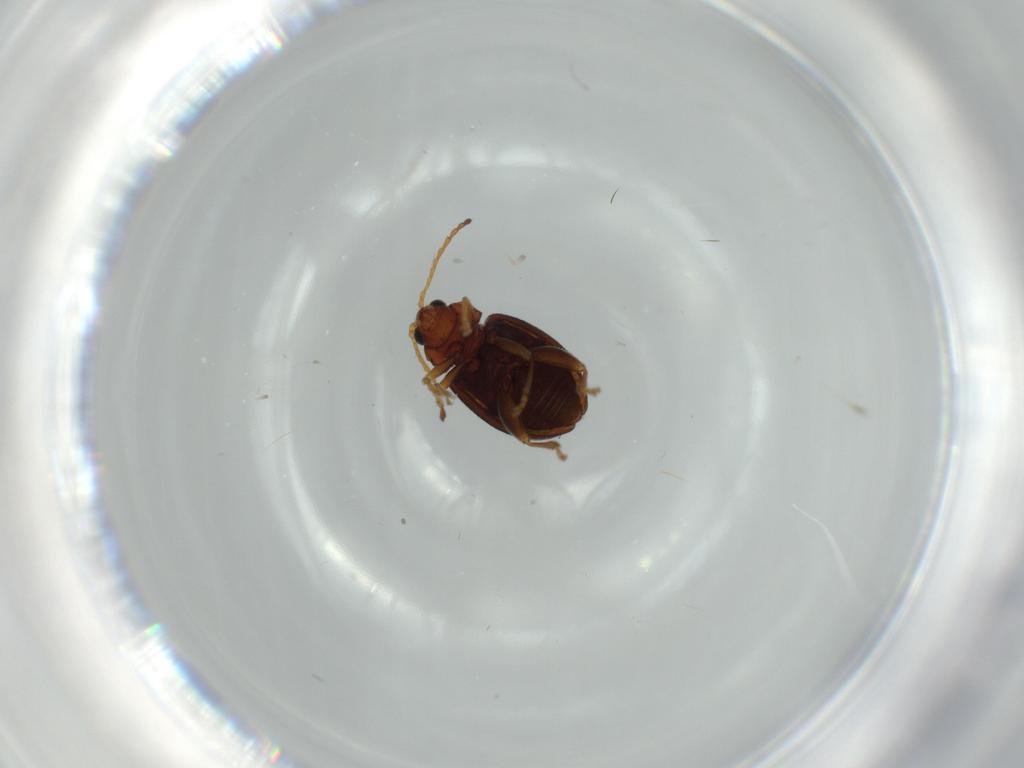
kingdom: Animalia
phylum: Arthropoda
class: Insecta
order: Coleoptera
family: Chrysomelidae
